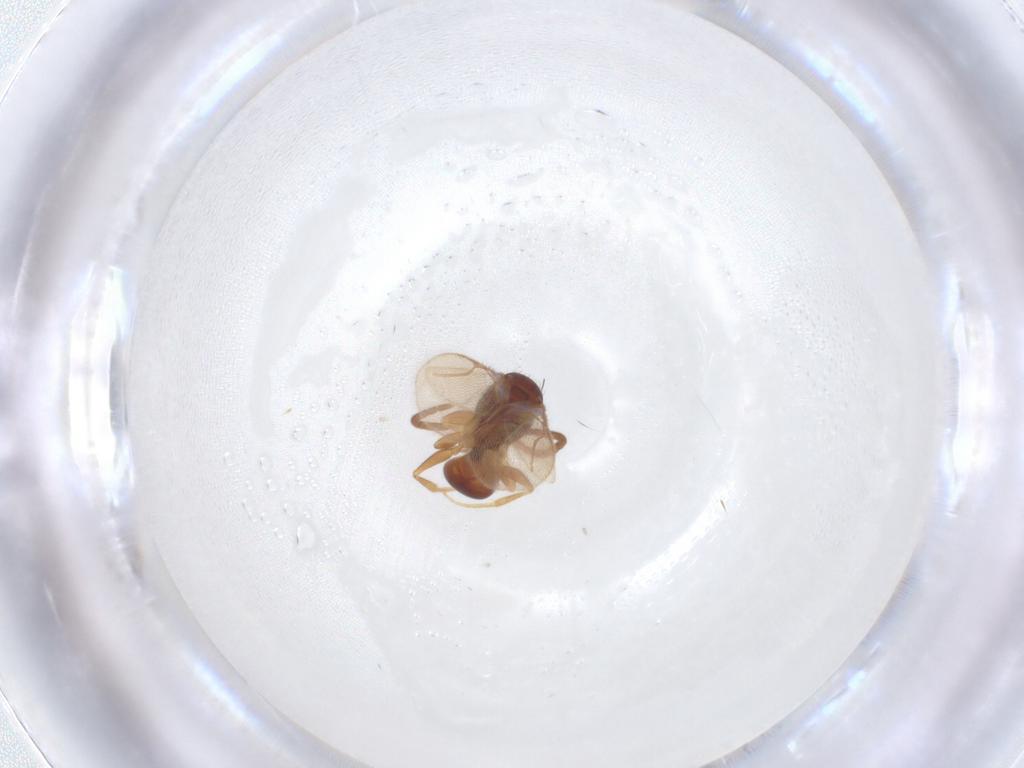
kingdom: Animalia
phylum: Arthropoda
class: Insecta
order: Hymenoptera
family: Bethylidae
